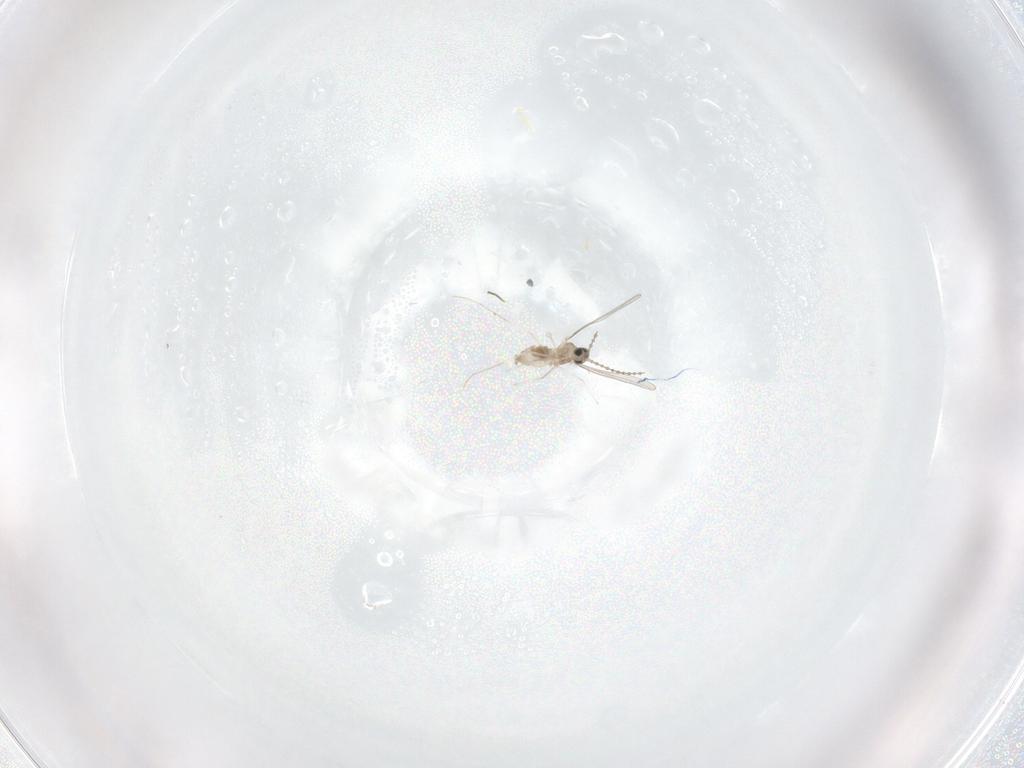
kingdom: Animalia
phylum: Arthropoda
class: Insecta
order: Diptera
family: Cecidomyiidae
